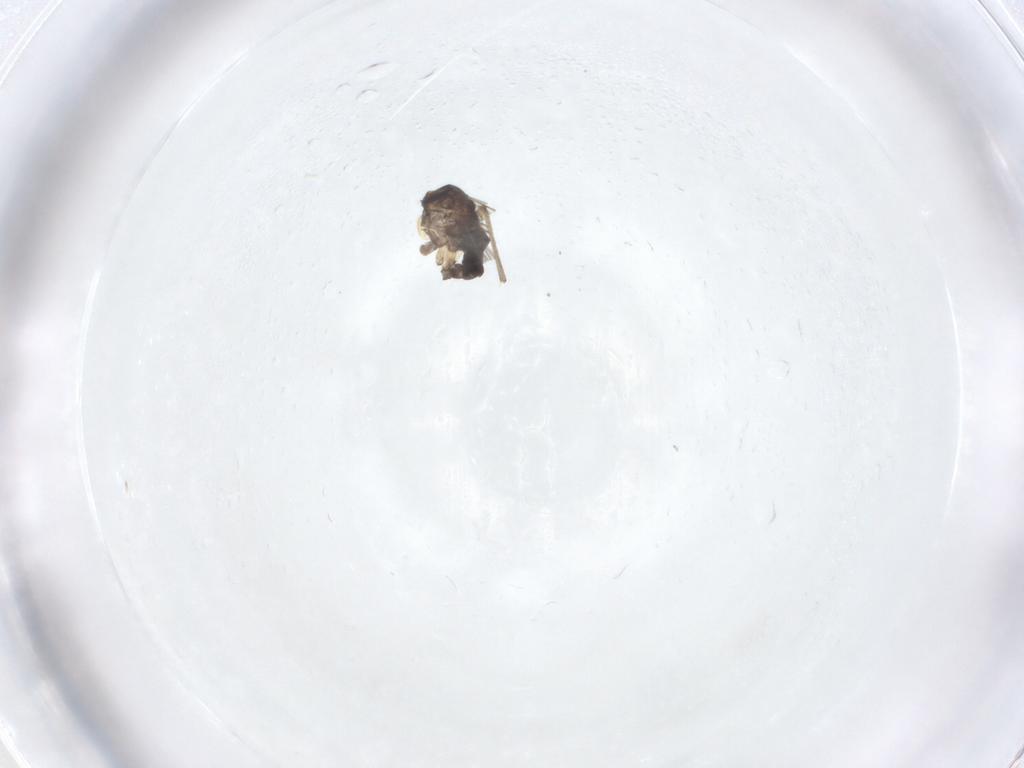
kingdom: Animalia
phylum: Arthropoda
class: Insecta
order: Diptera
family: Sciaridae
